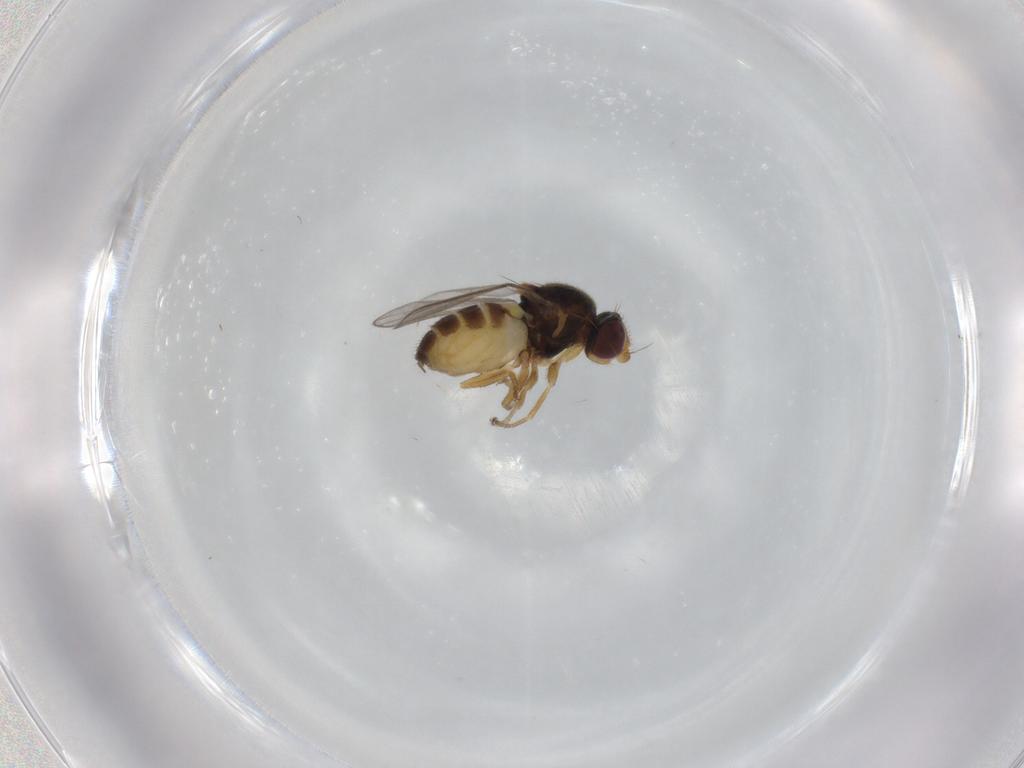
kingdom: Animalia
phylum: Arthropoda
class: Insecta
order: Diptera
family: Chloropidae
